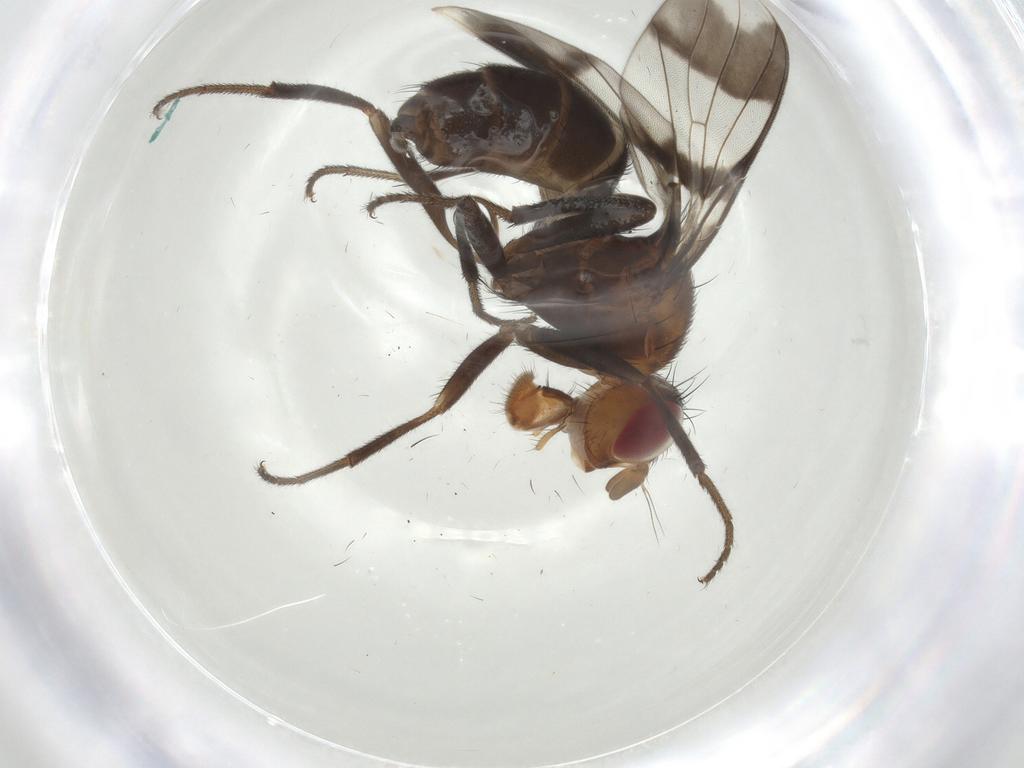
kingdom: Animalia
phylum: Arthropoda
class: Insecta
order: Diptera
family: Richardiidae
